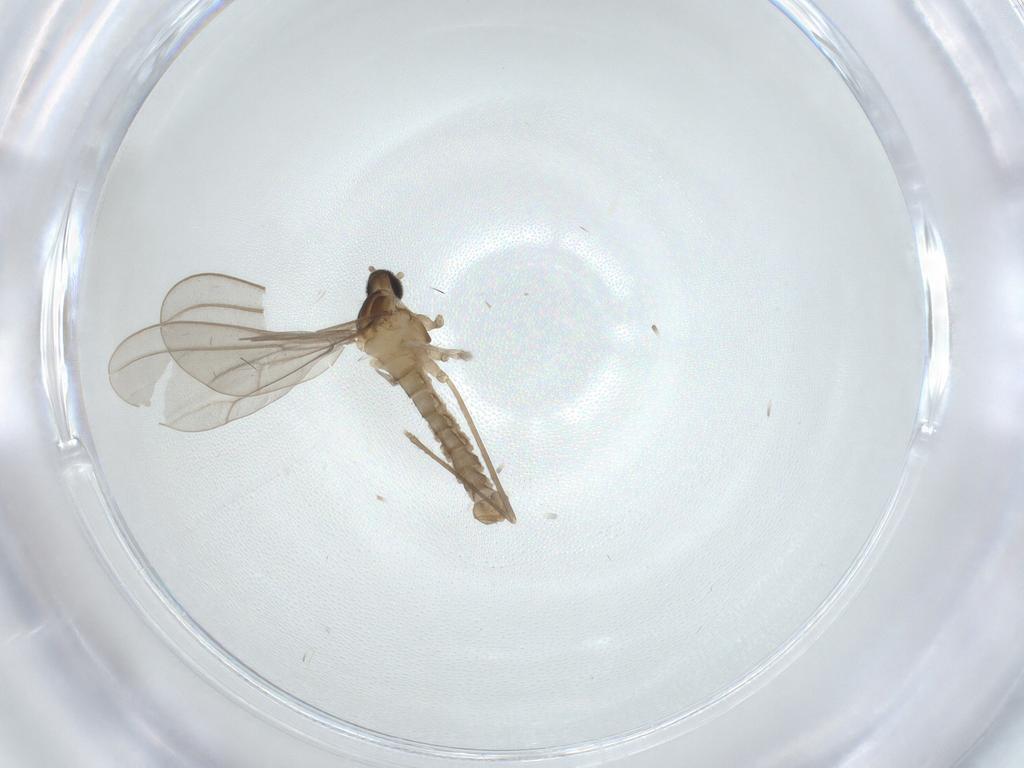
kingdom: Animalia
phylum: Arthropoda
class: Insecta
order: Diptera
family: Cecidomyiidae
